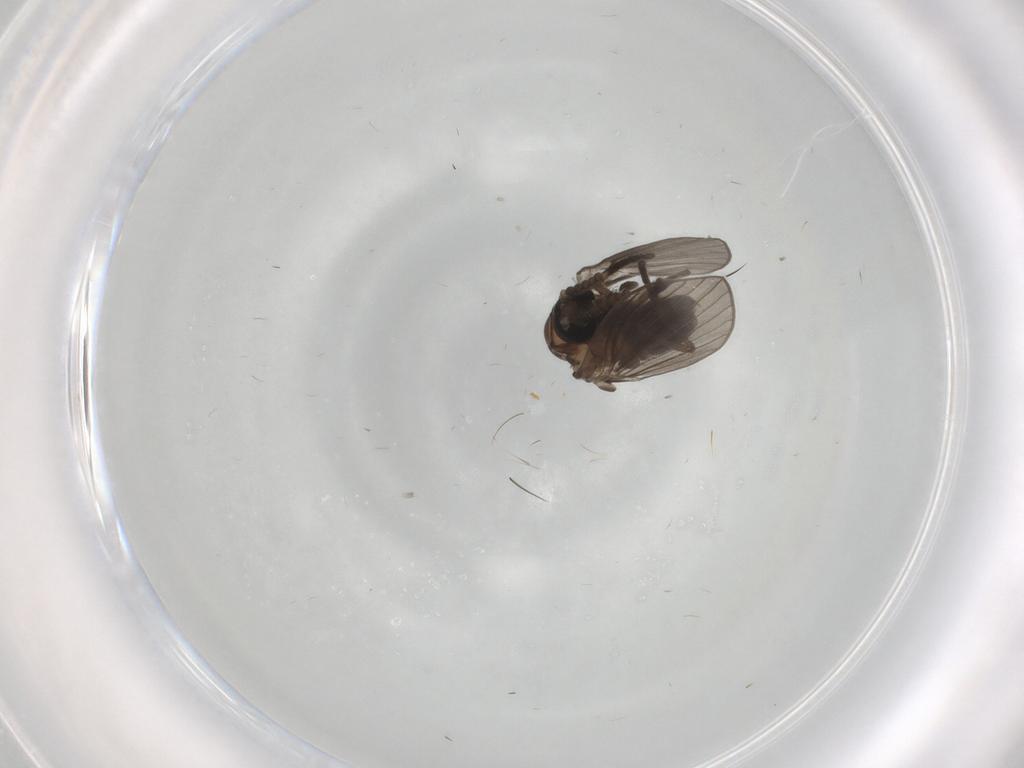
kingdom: Animalia
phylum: Arthropoda
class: Insecta
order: Diptera
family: Psychodidae
